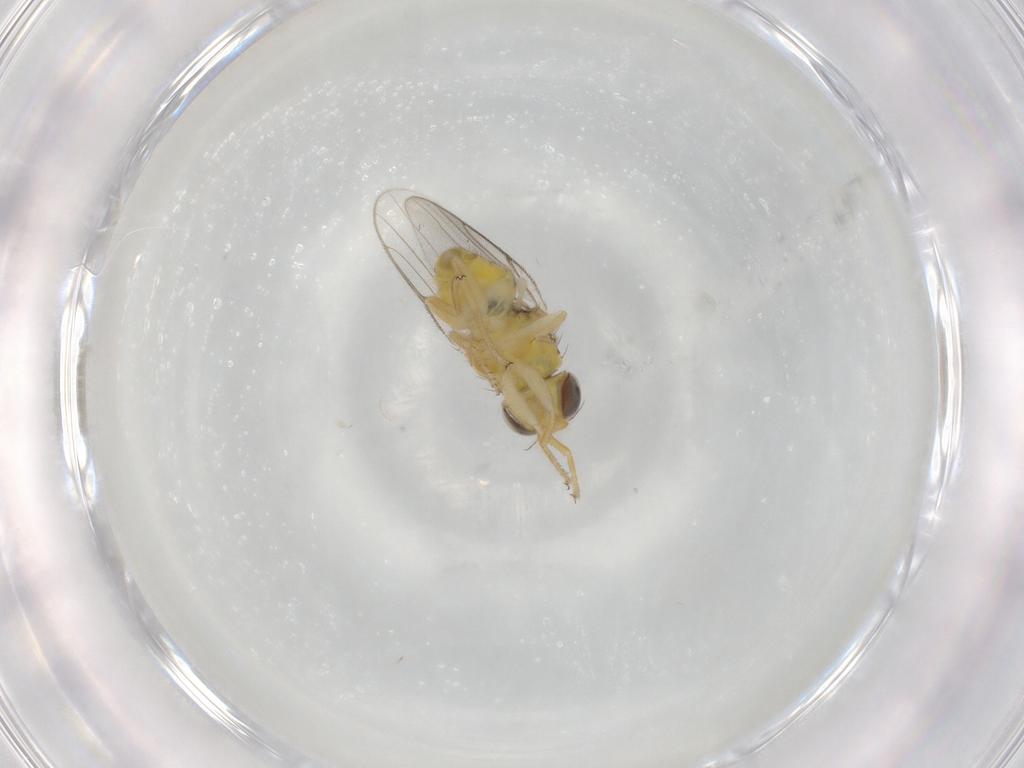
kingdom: Animalia
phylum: Arthropoda
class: Insecta
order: Diptera
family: Chloropidae
